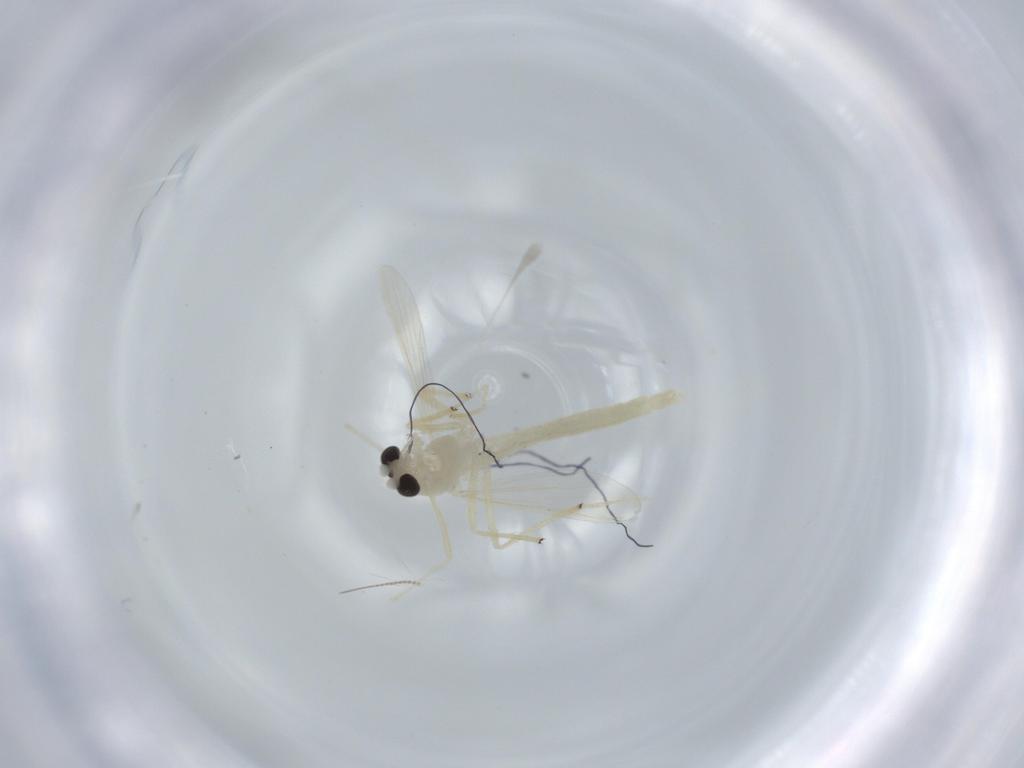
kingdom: Animalia
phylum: Arthropoda
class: Insecta
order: Diptera
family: Chironomidae
